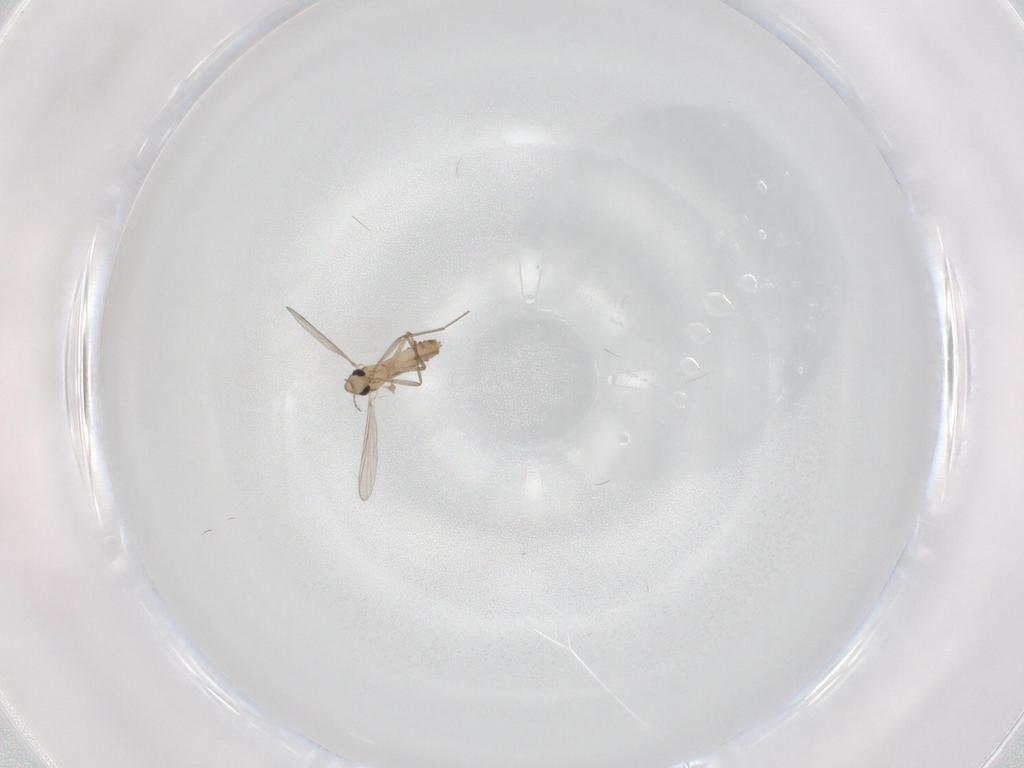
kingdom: Animalia
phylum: Arthropoda
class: Insecta
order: Diptera
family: Chironomidae
